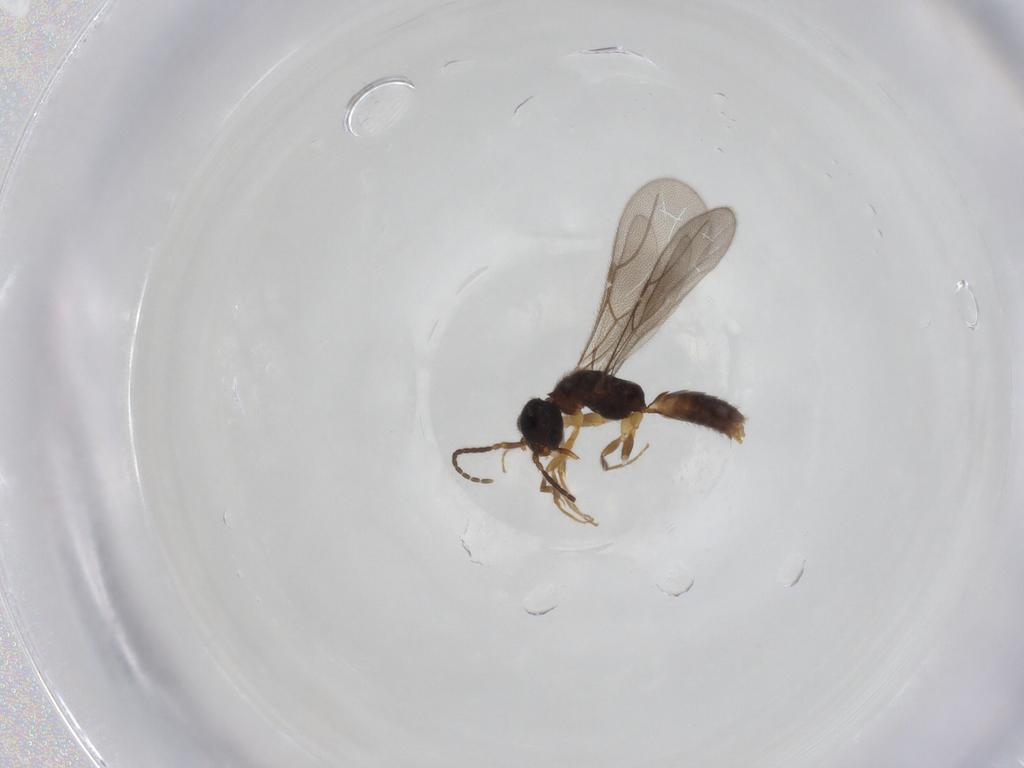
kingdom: Animalia
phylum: Arthropoda
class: Insecta
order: Hymenoptera
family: Bethylidae
